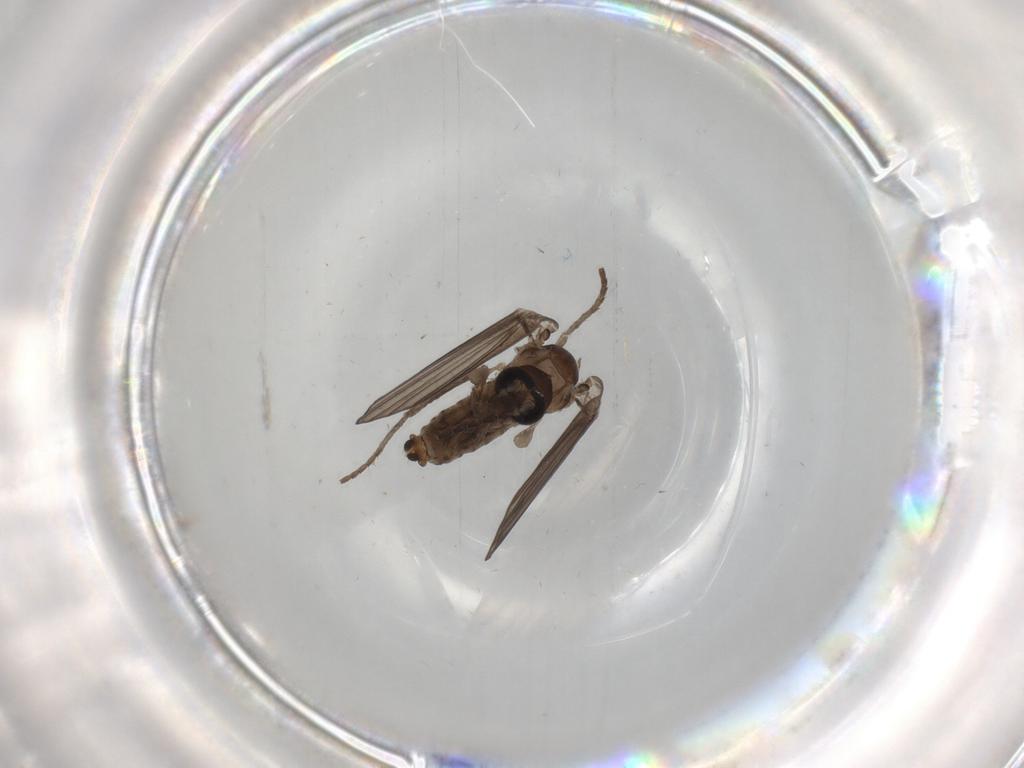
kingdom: Animalia
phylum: Arthropoda
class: Insecta
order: Diptera
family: Psychodidae
